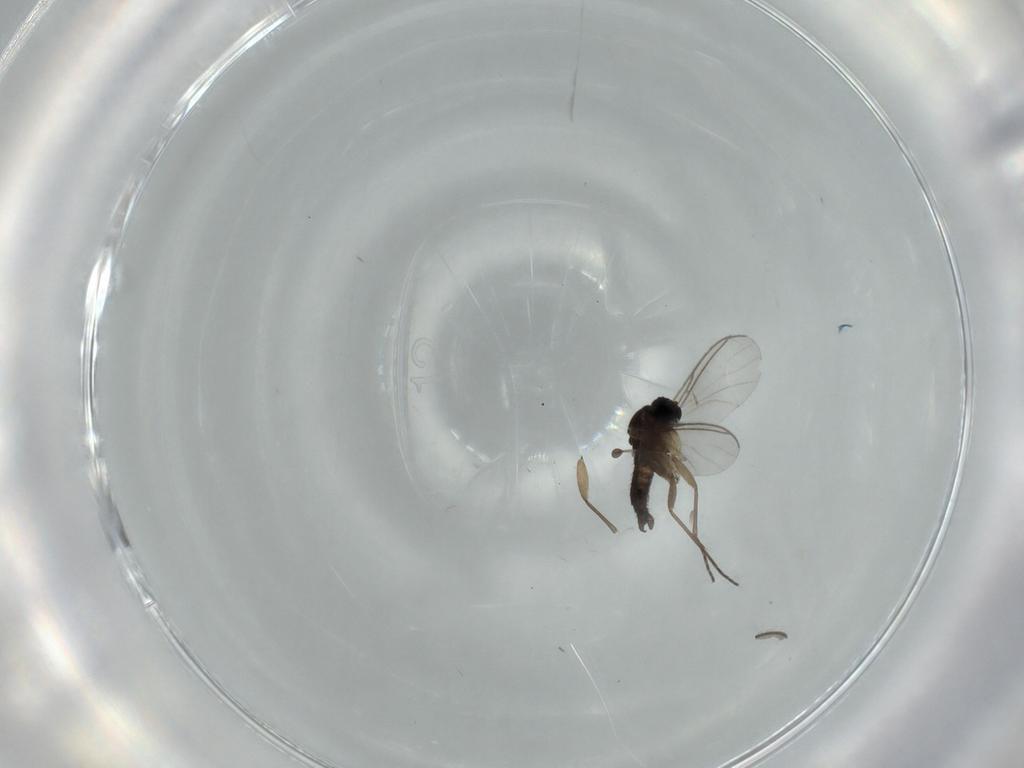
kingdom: Animalia
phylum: Arthropoda
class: Insecta
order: Diptera
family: Sciaridae
